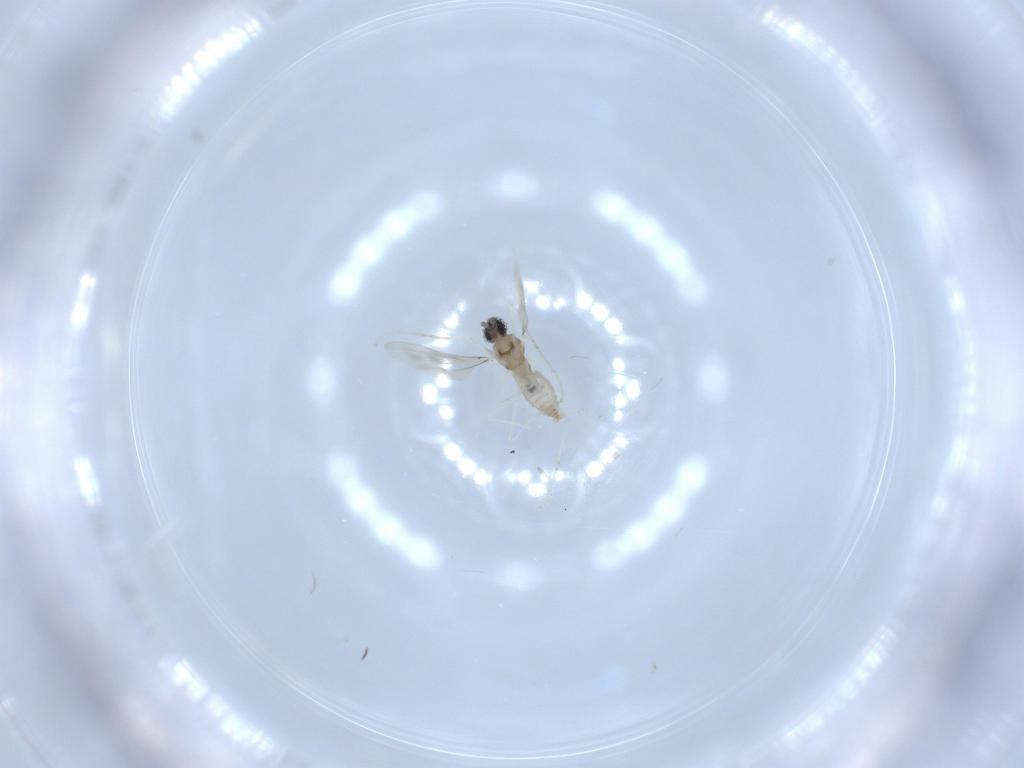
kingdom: Animalia
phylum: Arthropoda
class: Insecta
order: Diptera
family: Cecidomyiidae
